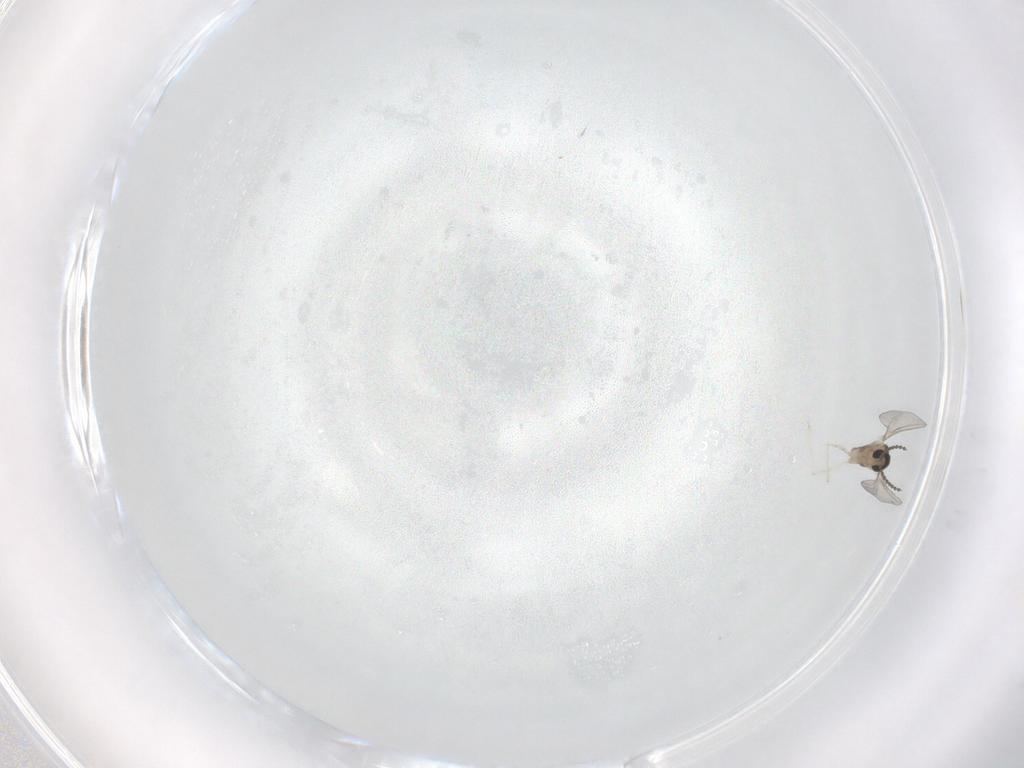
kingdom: Animalia
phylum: Arthropoda
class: Insecta
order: Diptera
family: Cecidomyiidae
